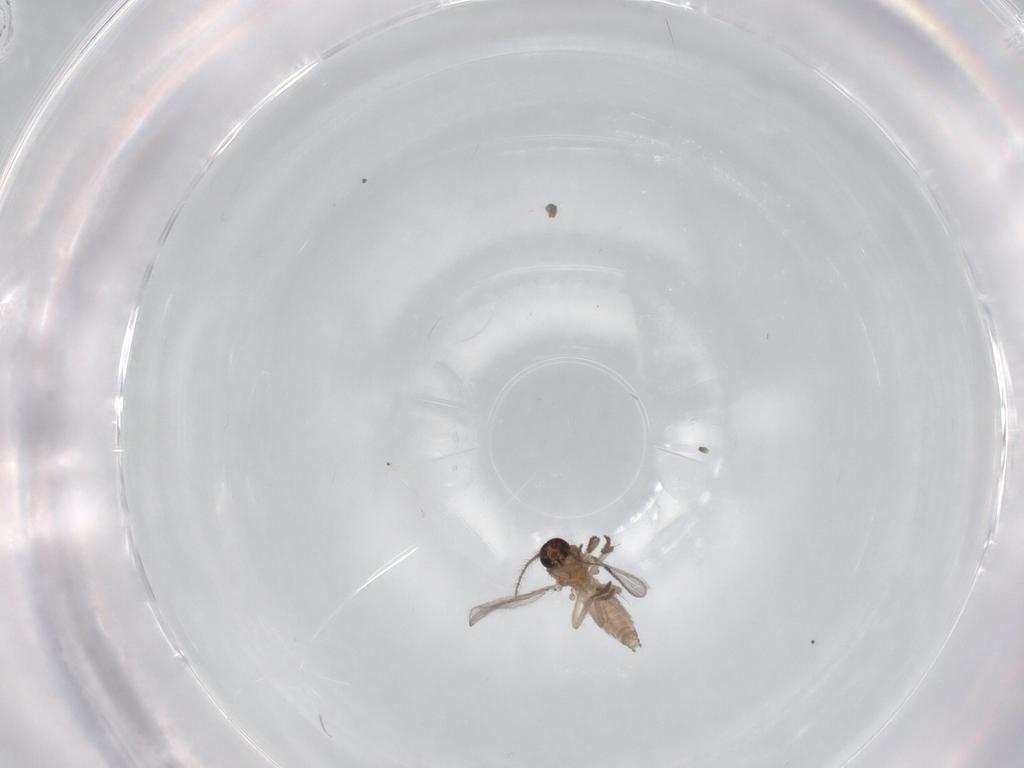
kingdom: Animalia
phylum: Arthropoda
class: Insecta
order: Diptera
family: Ceratopogonidae
